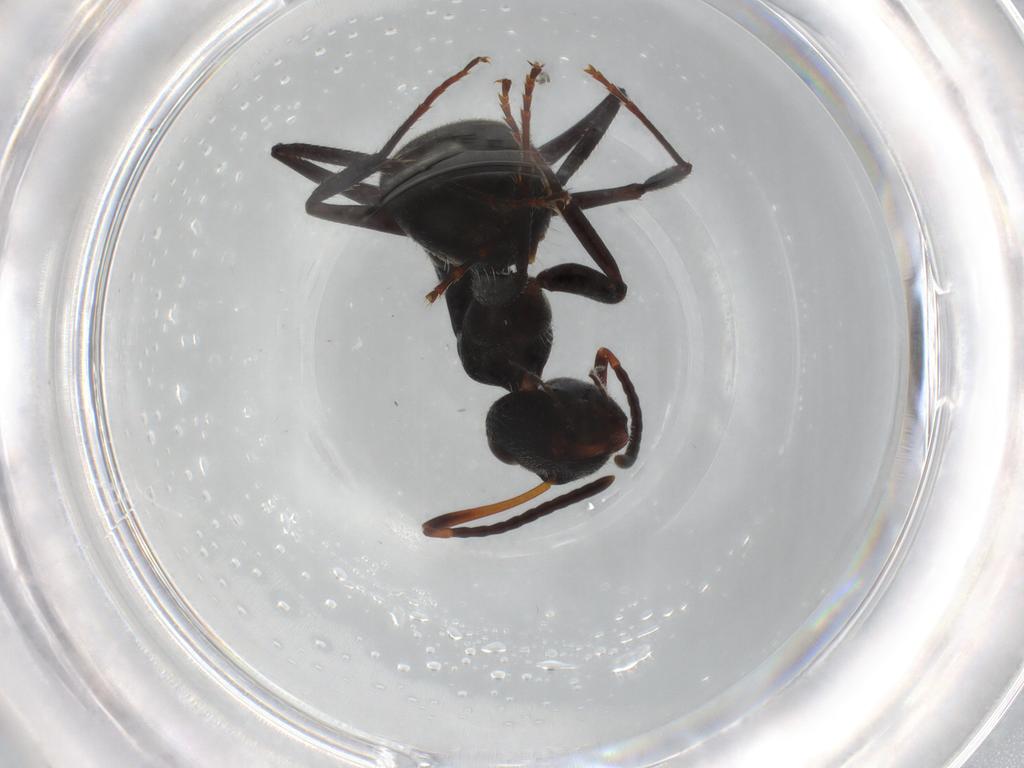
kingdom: Animalia
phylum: Arthropoda
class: Insecta
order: Hymenoptera
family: Formicidae
